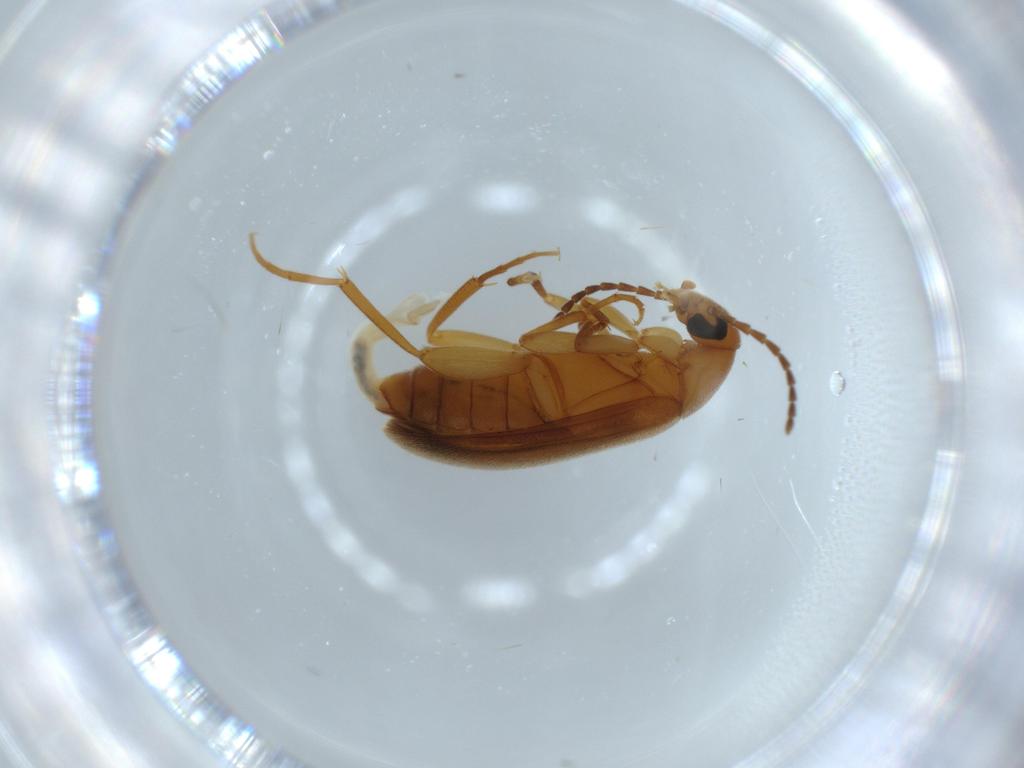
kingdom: Animalia
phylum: Arthropoda
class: Insecta
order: Coleoptera
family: Scraptiidae
